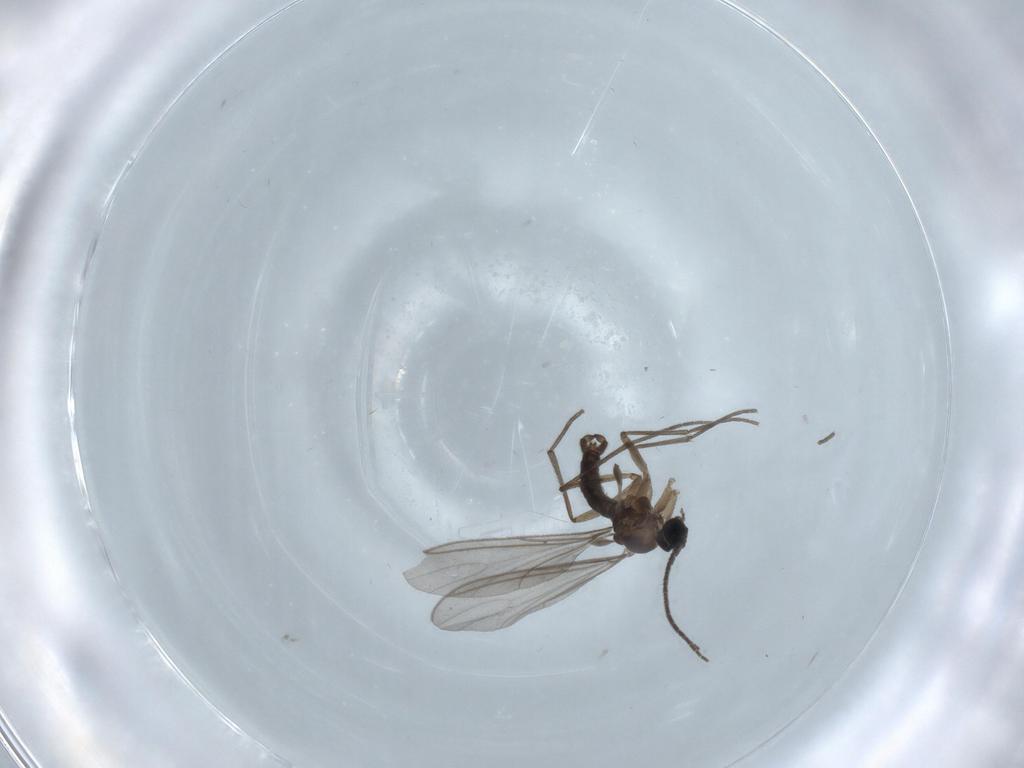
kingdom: Animalia
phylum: Arthropoda
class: Insecta
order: Diptera
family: Sciaridae
